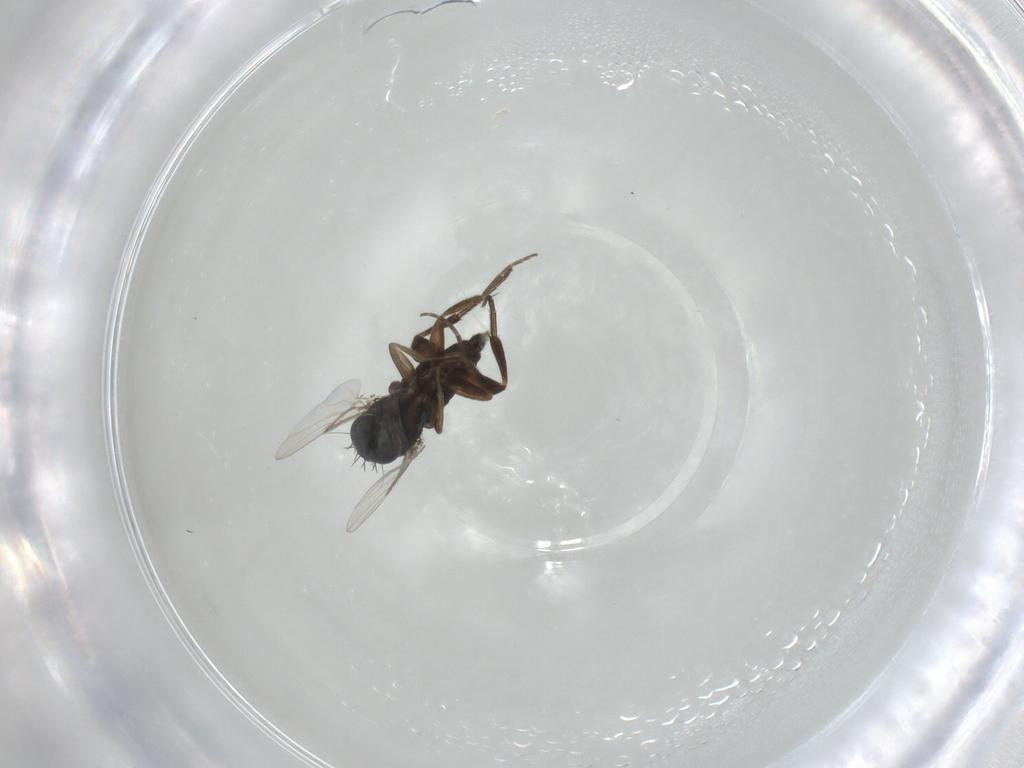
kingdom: Animalia
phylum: Arthropoda
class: Insecta
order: Diptera
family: Phoridae
